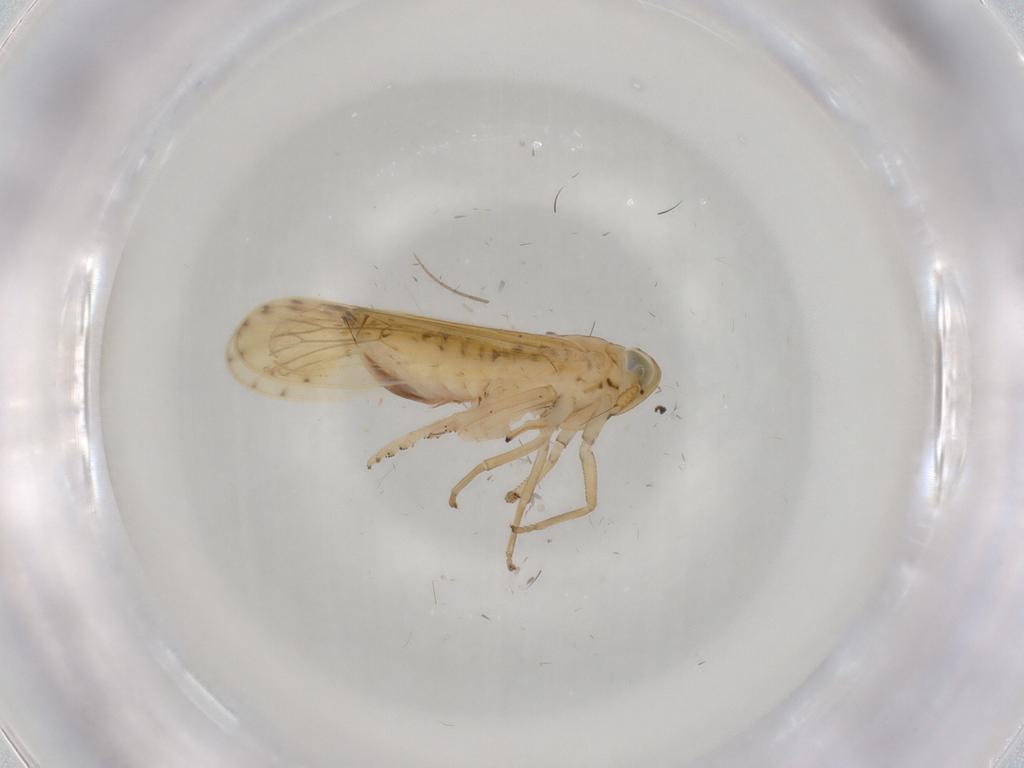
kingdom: Animalia
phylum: Arthropoda
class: Insecta
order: Hemiptera
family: Delphacidae
